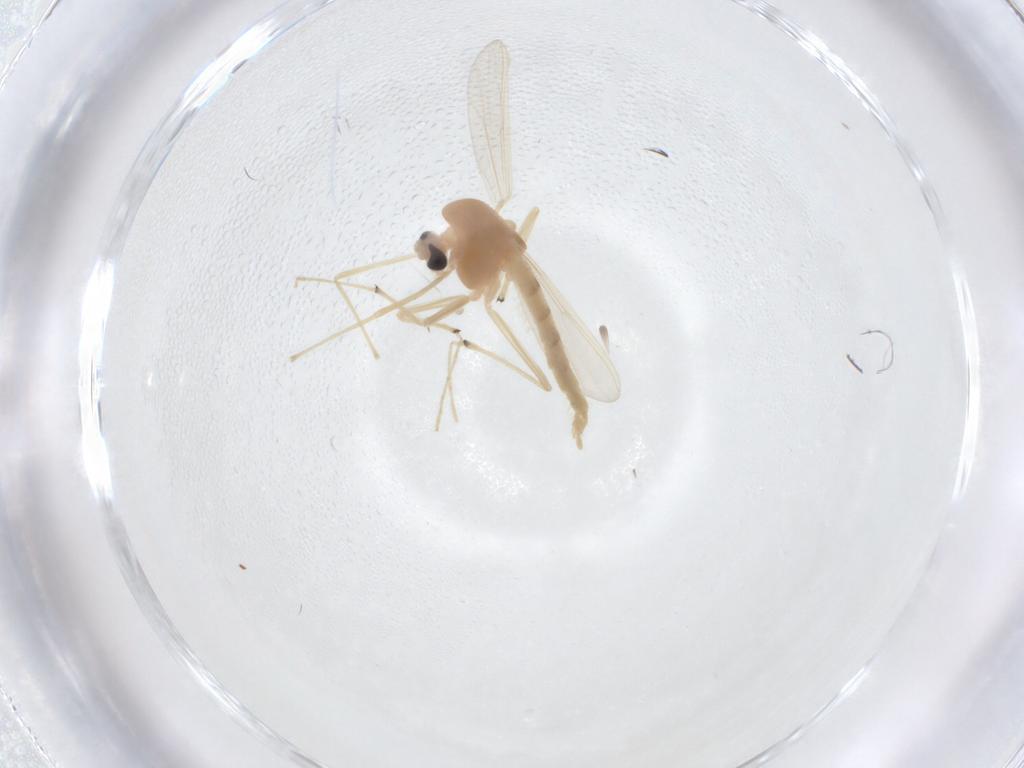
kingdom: Animalia
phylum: Arthropoda
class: Insecta
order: Diptera
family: Chironomidae
